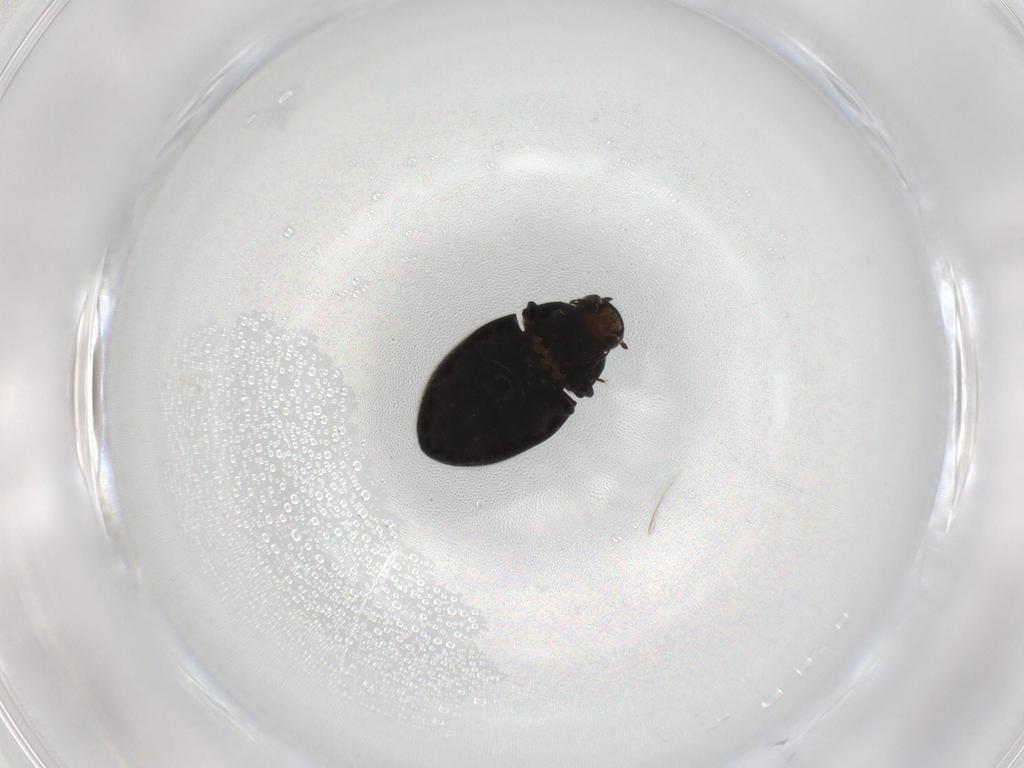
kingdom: Animalia
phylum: Arthropoda
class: Insecta
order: Coleoptera
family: Limnichidae
